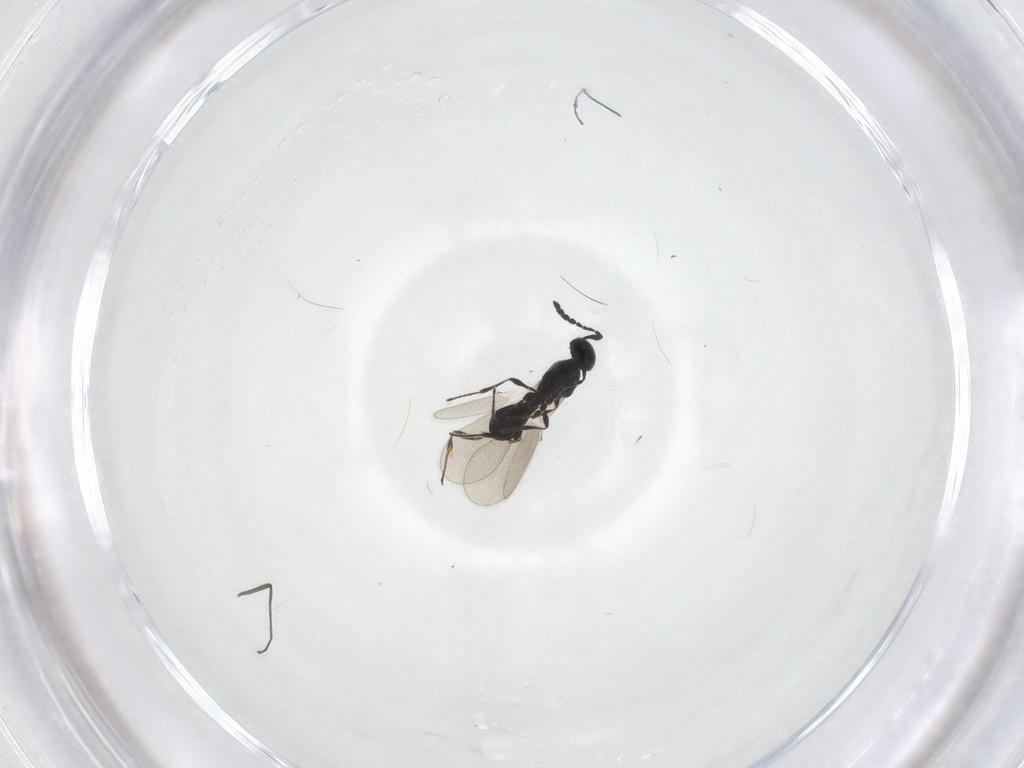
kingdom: Animalia
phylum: Arthropoda
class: Insecta
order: Hymenoptera
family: Platygastridae
